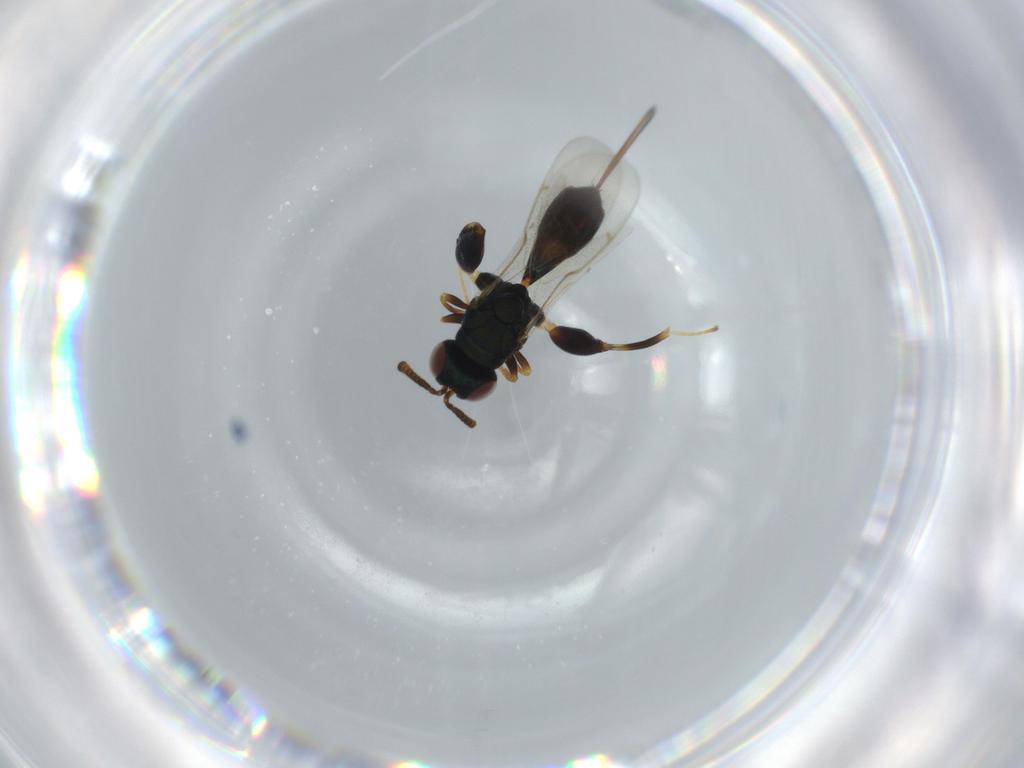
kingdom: Animalia
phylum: Arthropoda
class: Insecta
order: Hymenoptera
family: Torymidae
